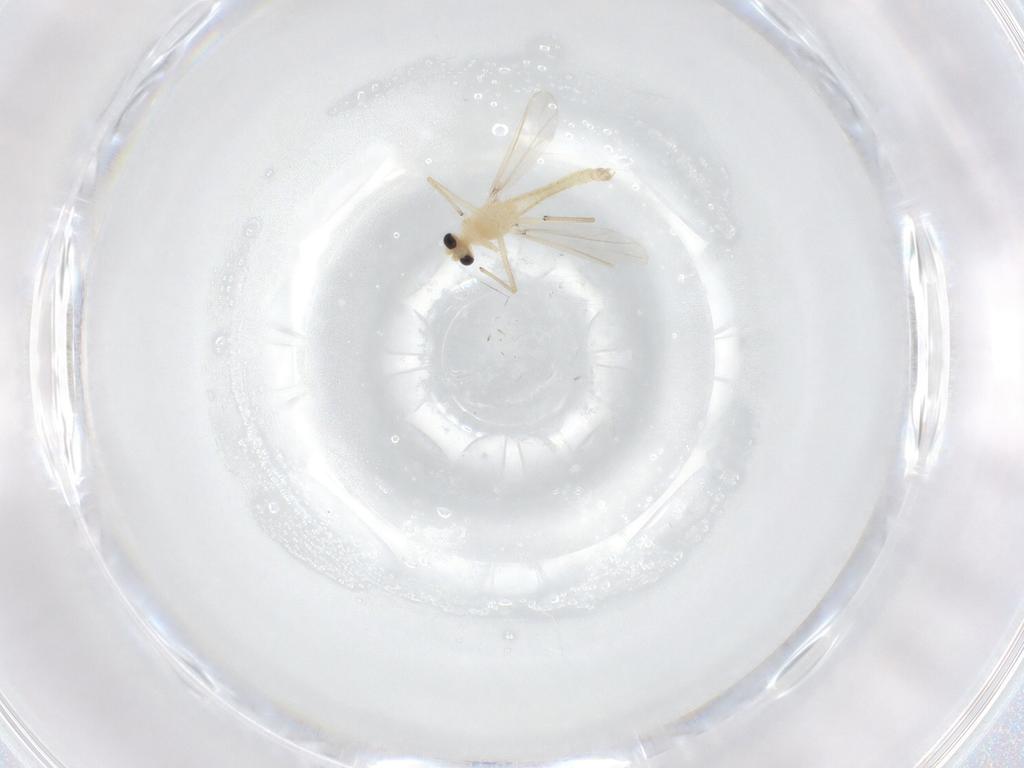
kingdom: Animalia
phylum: Arthropoda
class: Insecta
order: Diptera
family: Chironomidae
